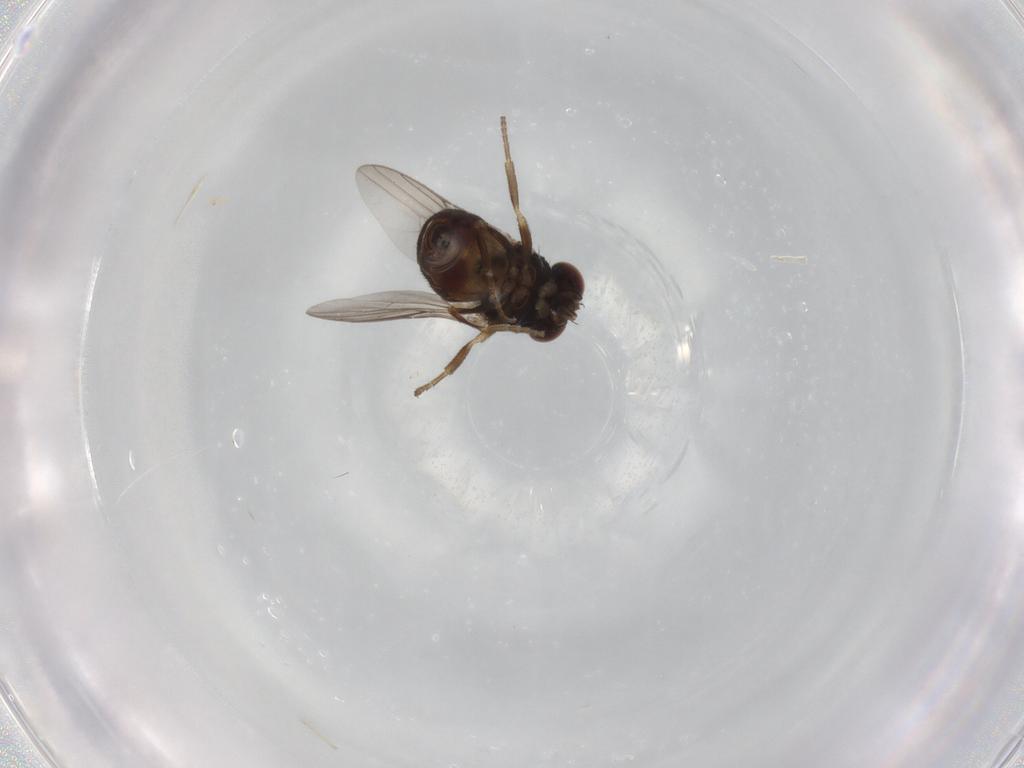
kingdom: Animalia
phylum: Arthropoda
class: Insecta
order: Diptera
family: Chloropidae
